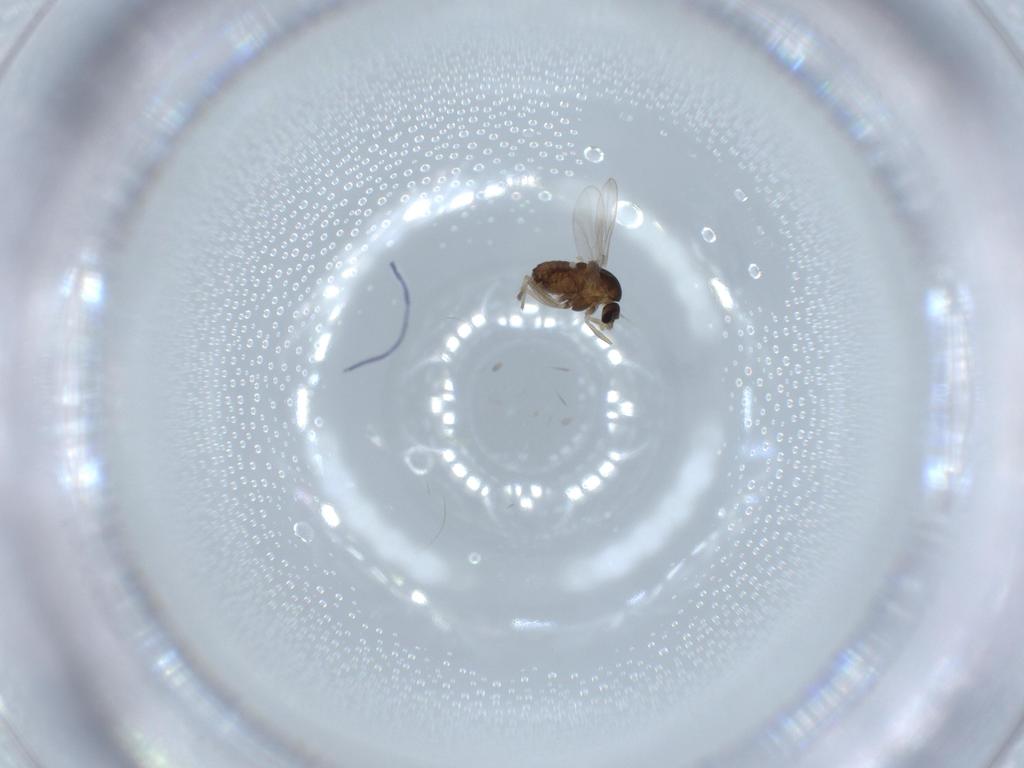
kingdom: Animalia
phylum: Arthropoda
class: Insecta
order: Diptera
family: Chironomidae
